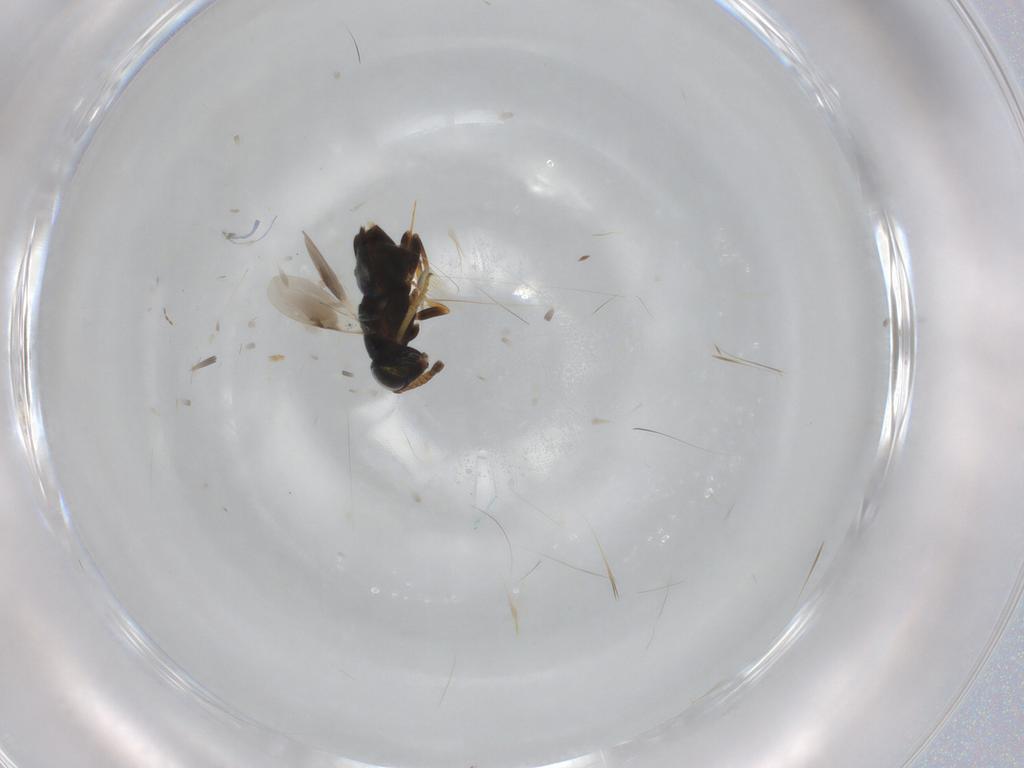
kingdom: Animalia
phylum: Arthropoda
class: Insecta
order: Hymenoptera
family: Encyrtidae
